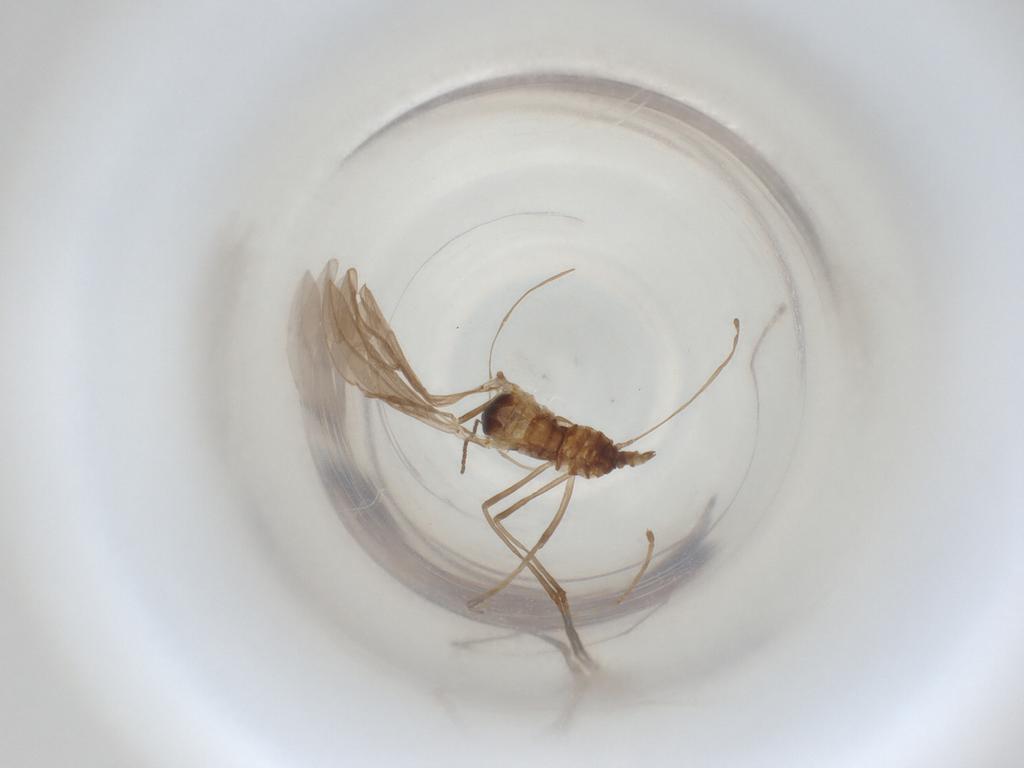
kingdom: Animalia
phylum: Arthropoda
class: Insecta
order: Diptera
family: Cecidomyiidae
